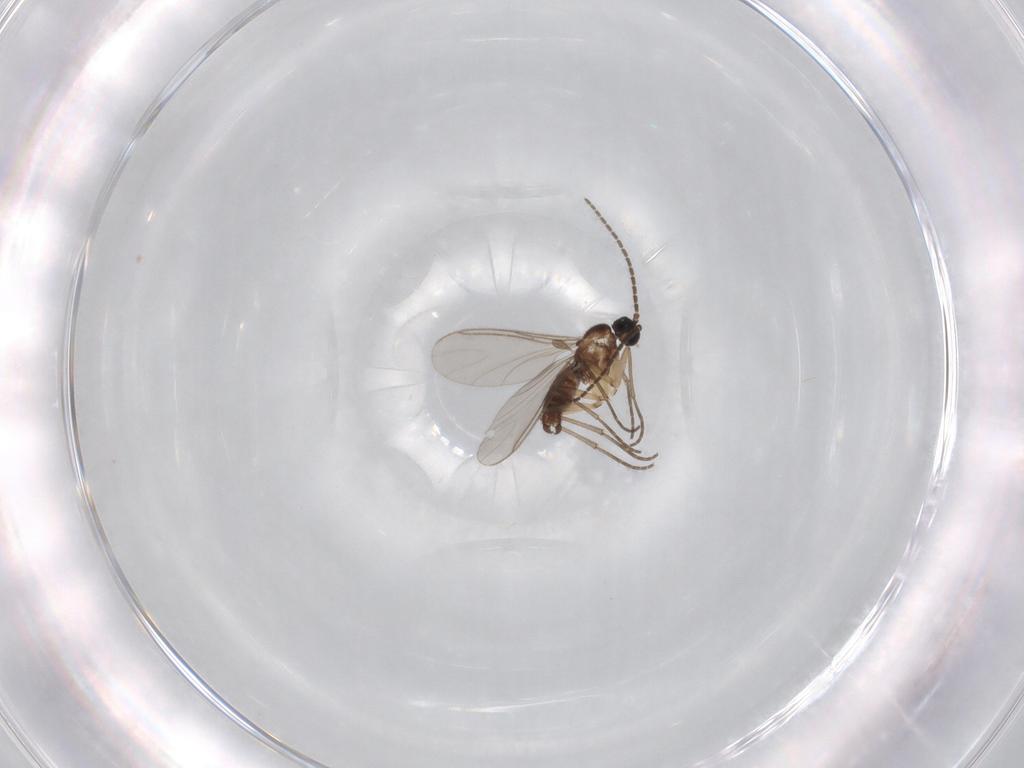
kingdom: Animalia
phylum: Arthropoda
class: Insecta
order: Diptera
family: Sciaridae
